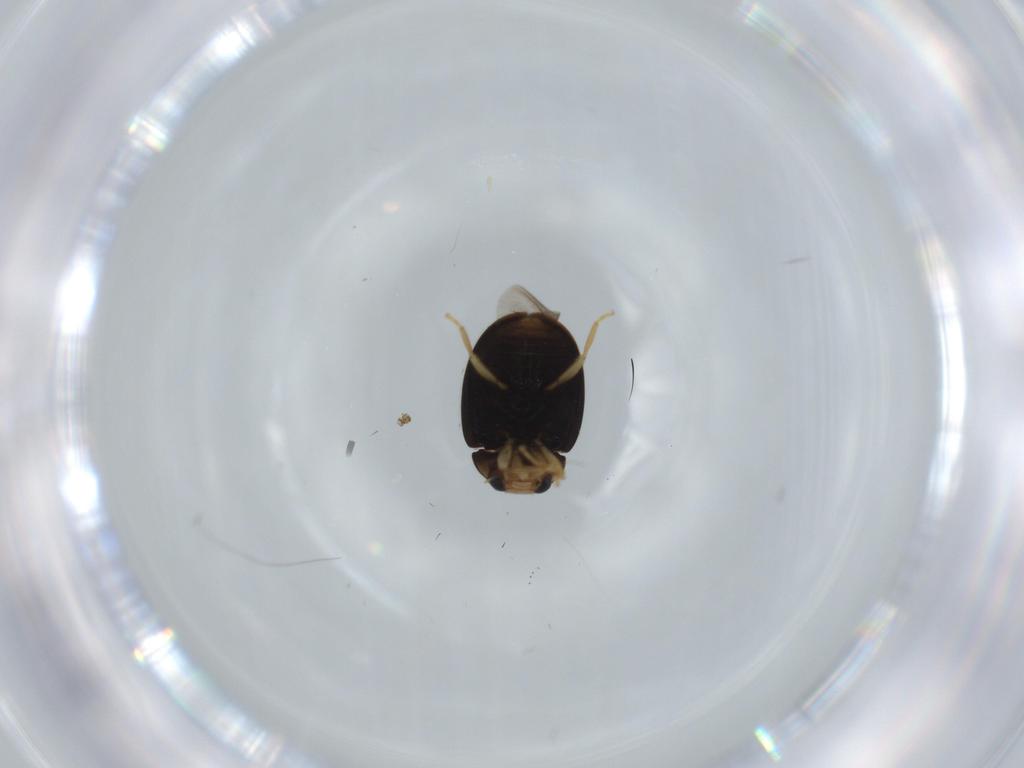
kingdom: Animalia
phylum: Arthropoda
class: Insecta
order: Coleoptera
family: Coccinellidae
